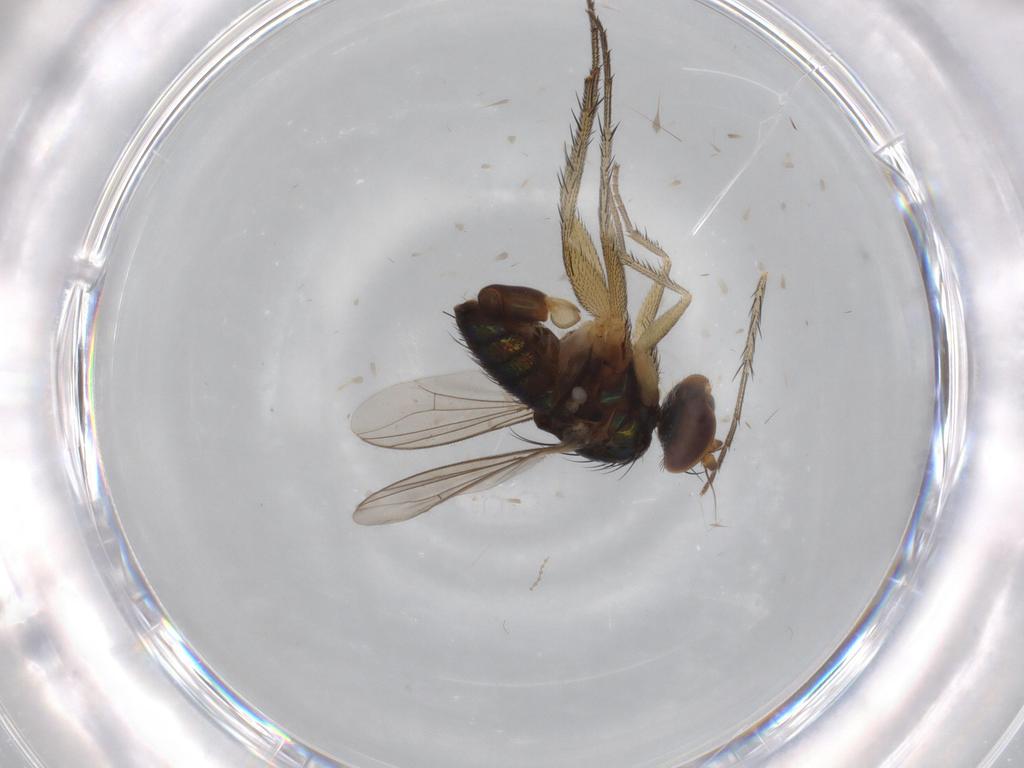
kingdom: Animalia
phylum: Arthropoda
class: Insecta
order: Diptera
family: Dolichopodidae
